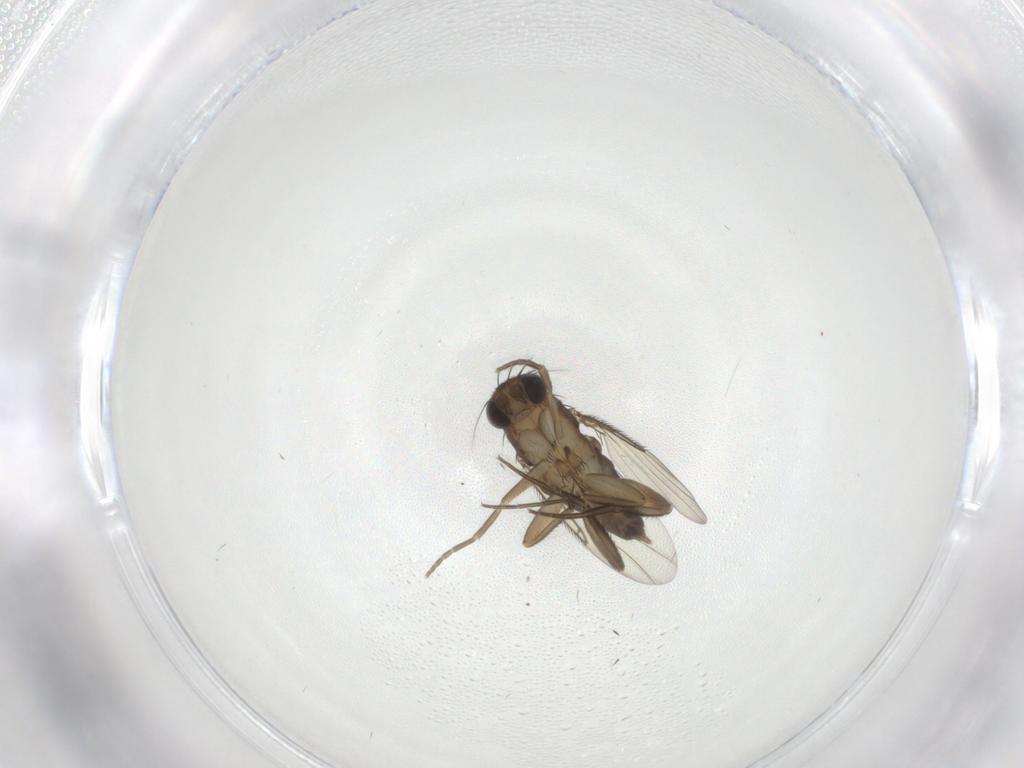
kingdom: Animalia
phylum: Arthropoda
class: Insecta
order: Diptera
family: Phoridae
